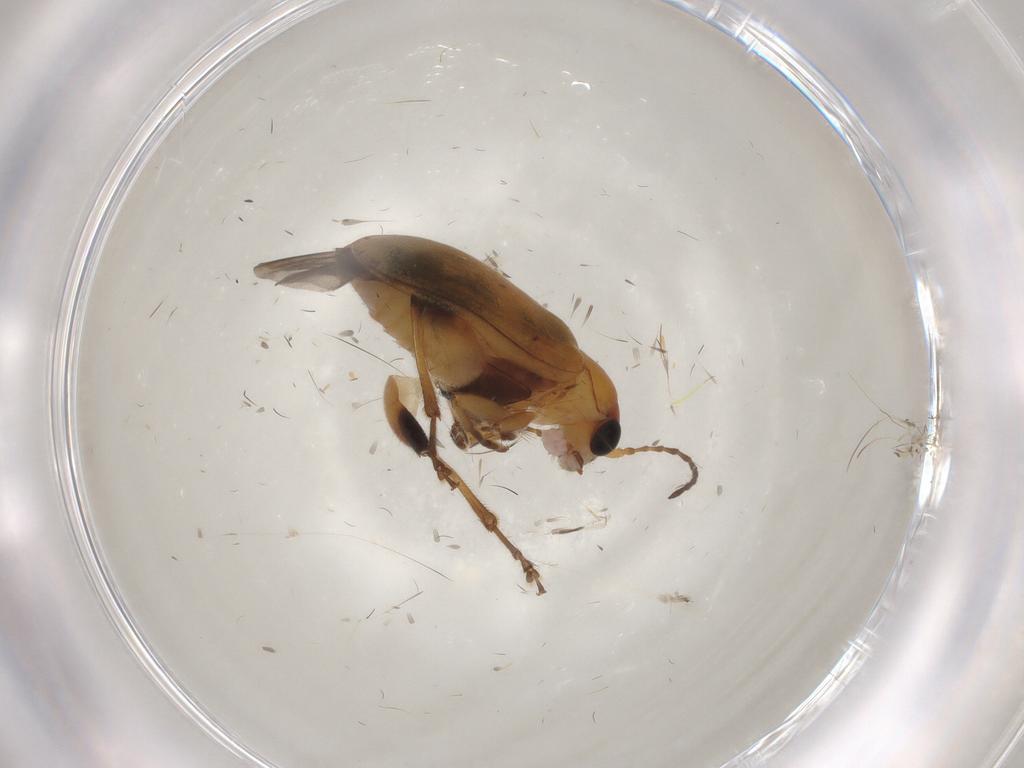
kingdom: Animalia
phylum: Arthropoda
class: Insecta
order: Coleoptera
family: Chrysomelidae
